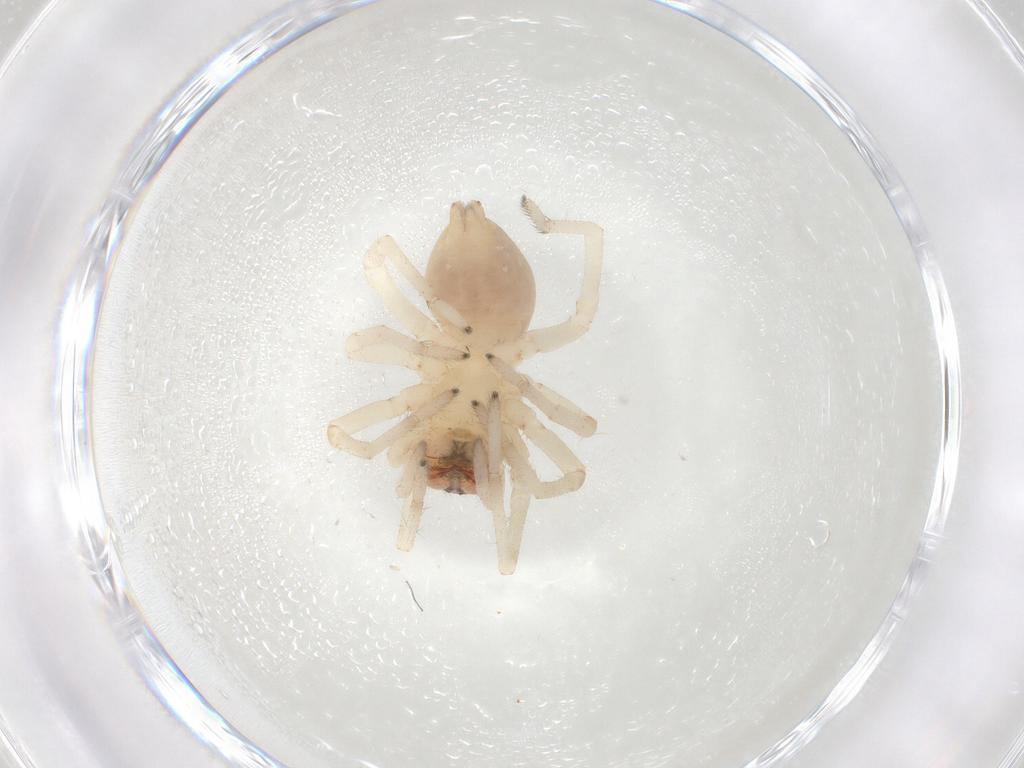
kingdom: Animalia
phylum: Arthropoda
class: Arachnida
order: Araneae
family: Cheiracanthiidae
